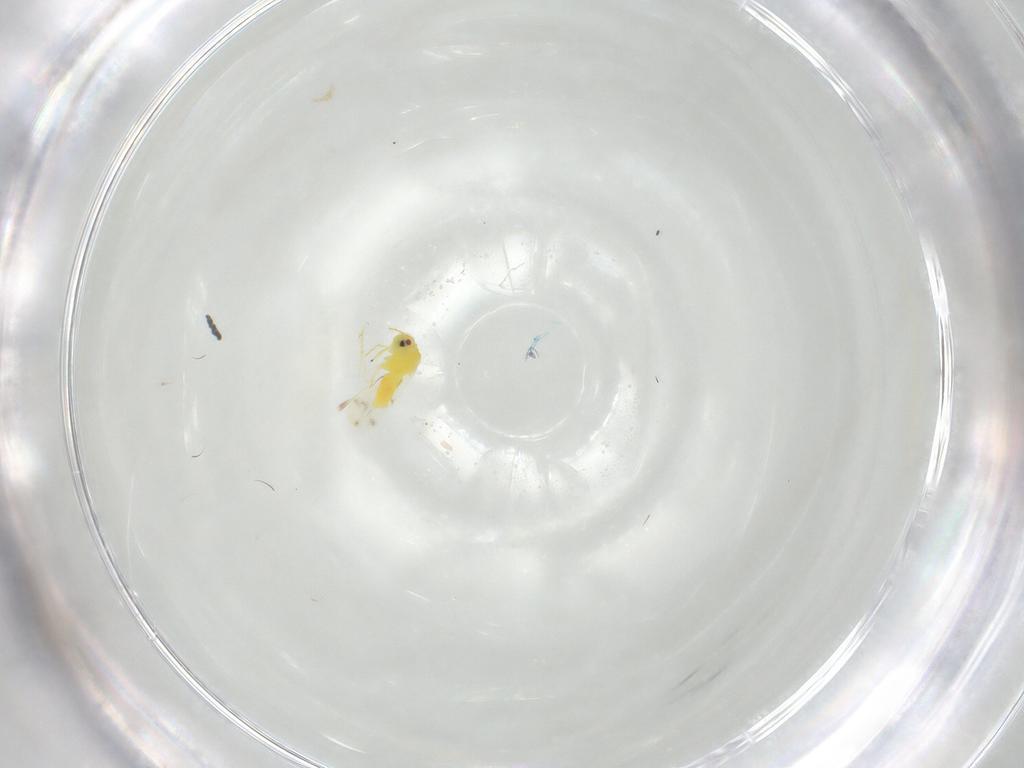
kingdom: Animalia
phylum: Arthropoda
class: Insecta
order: Hemiptera
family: Aleyrodidae
